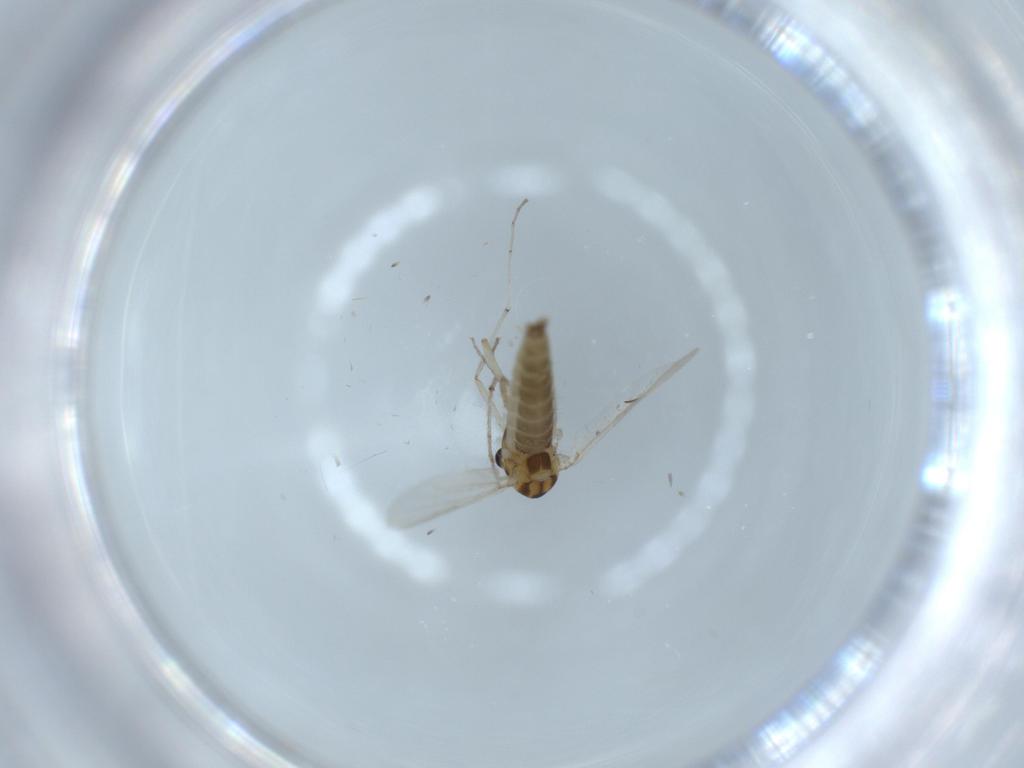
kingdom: Animalia
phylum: Arthropoda
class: Insecta
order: Diptera
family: Chironomidae
